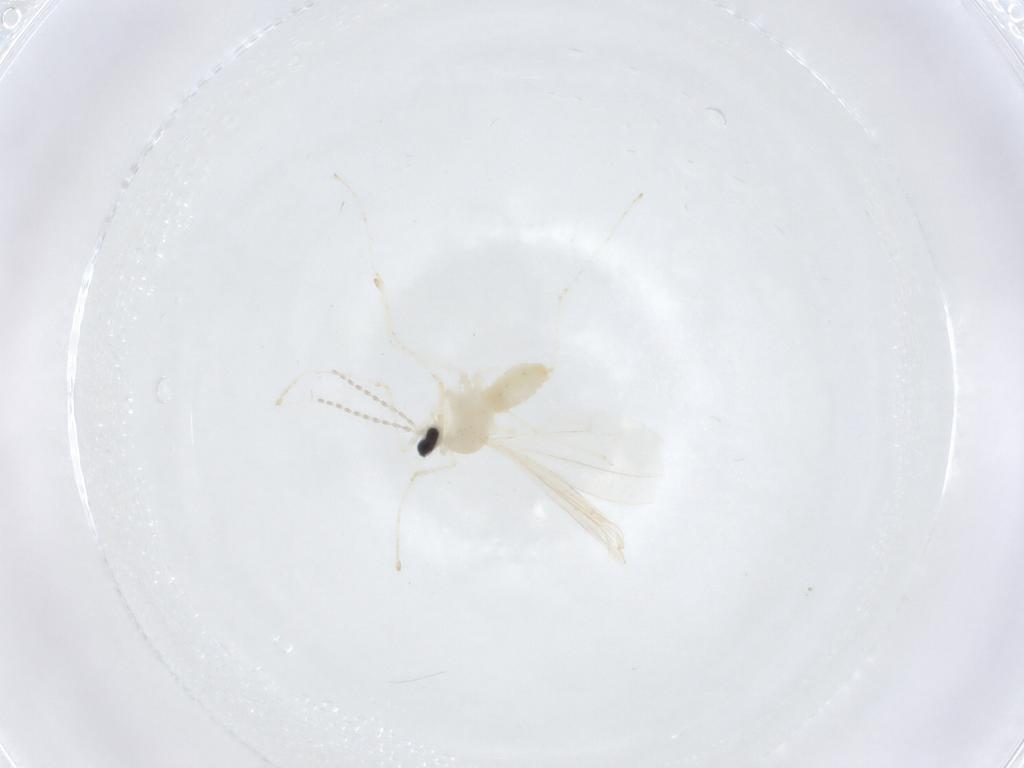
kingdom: Animalia
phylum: Arthropoda
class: Insecta
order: Diptera
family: Cecidomyiidae
